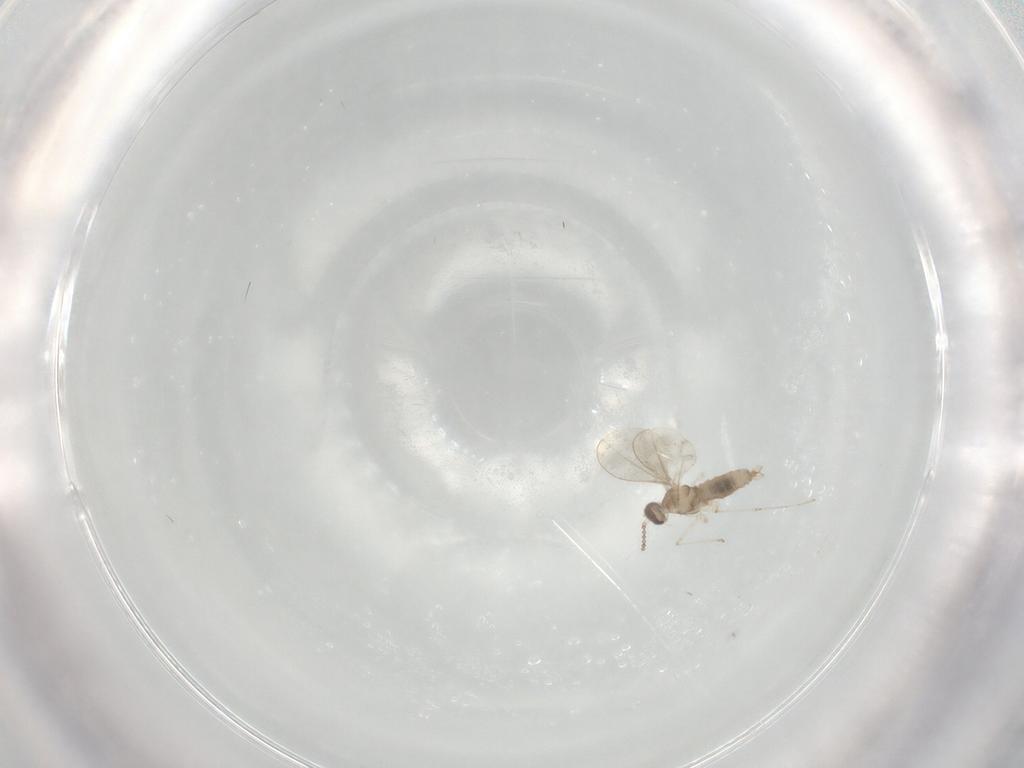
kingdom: Animalia
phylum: Arthropoda
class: Insecta
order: Diptera
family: Cecidomyiidae
